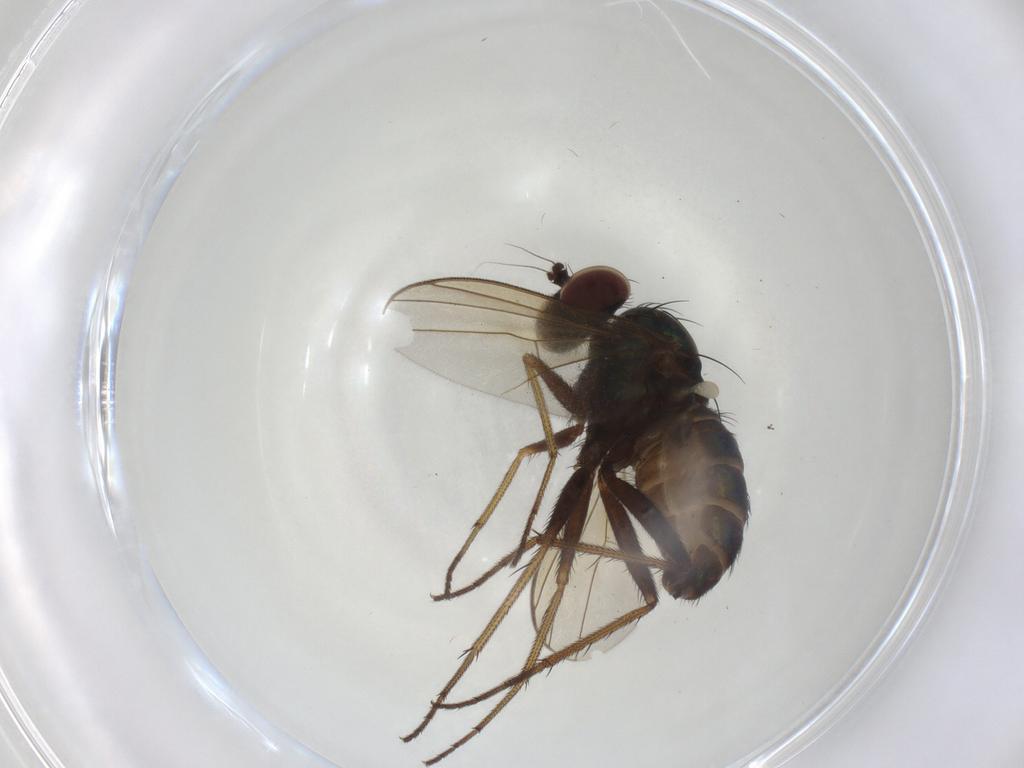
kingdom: Animalia
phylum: Arthropoda
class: Insecta
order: Diptera
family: Dolichopodidae
